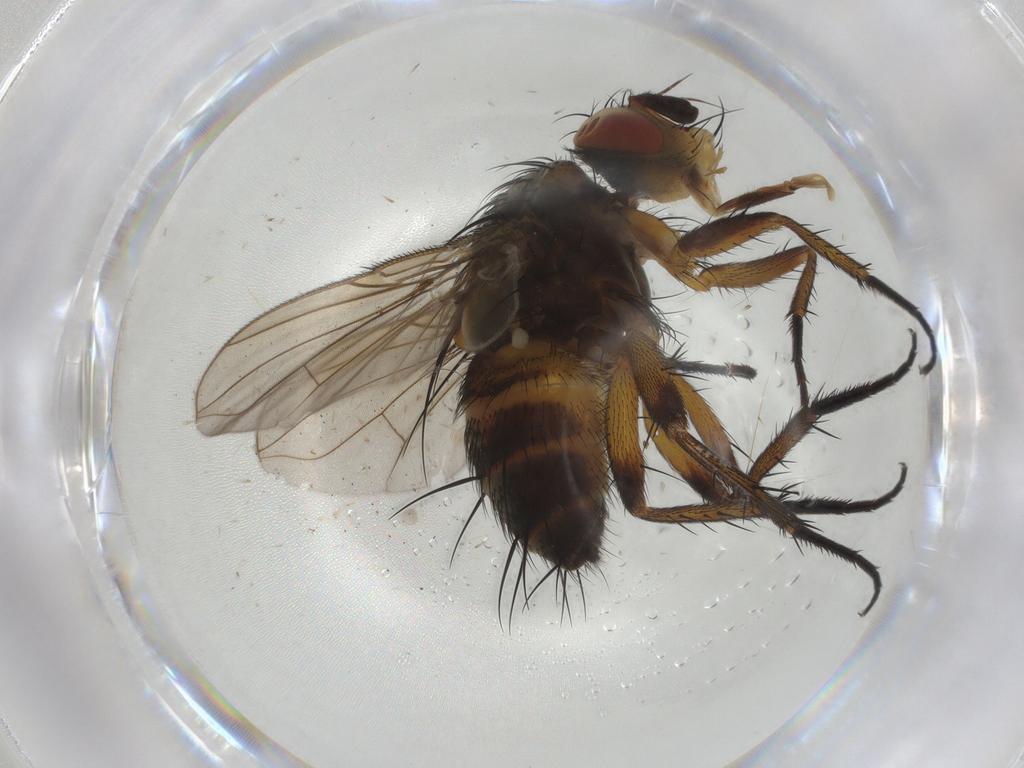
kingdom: Animalia
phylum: Arthropoda
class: Insecta
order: Diptera
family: Tachinidae
